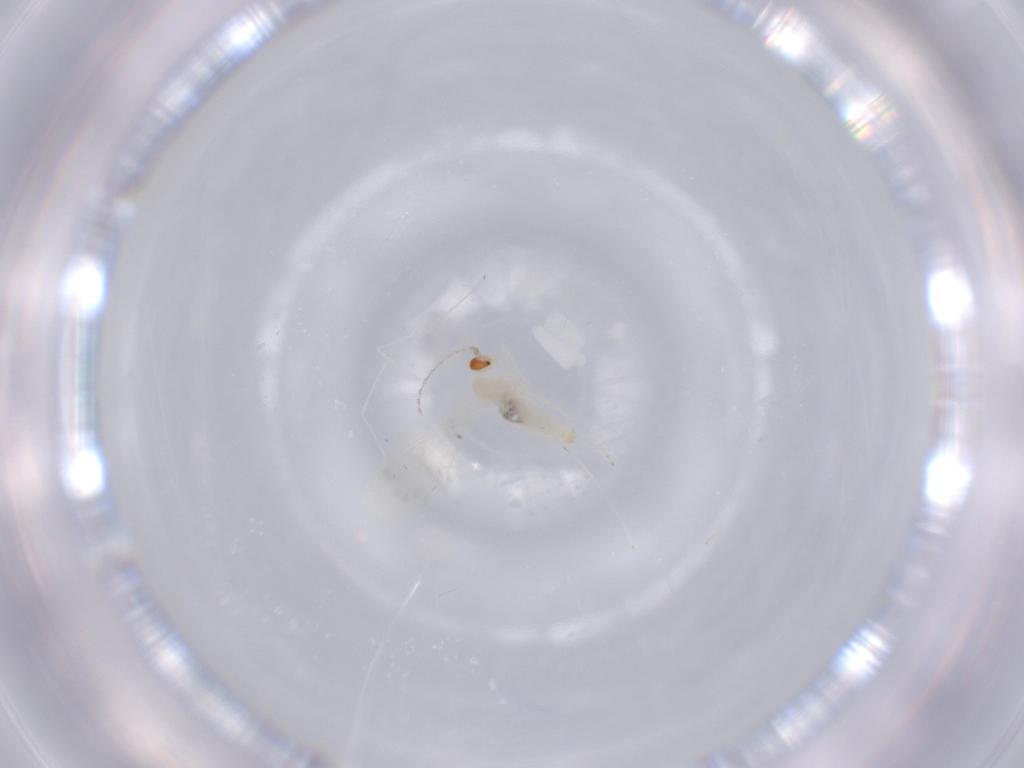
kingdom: Animalia
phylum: Arthropoda
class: Insecta
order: Diptera
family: Cecidomyiidae
